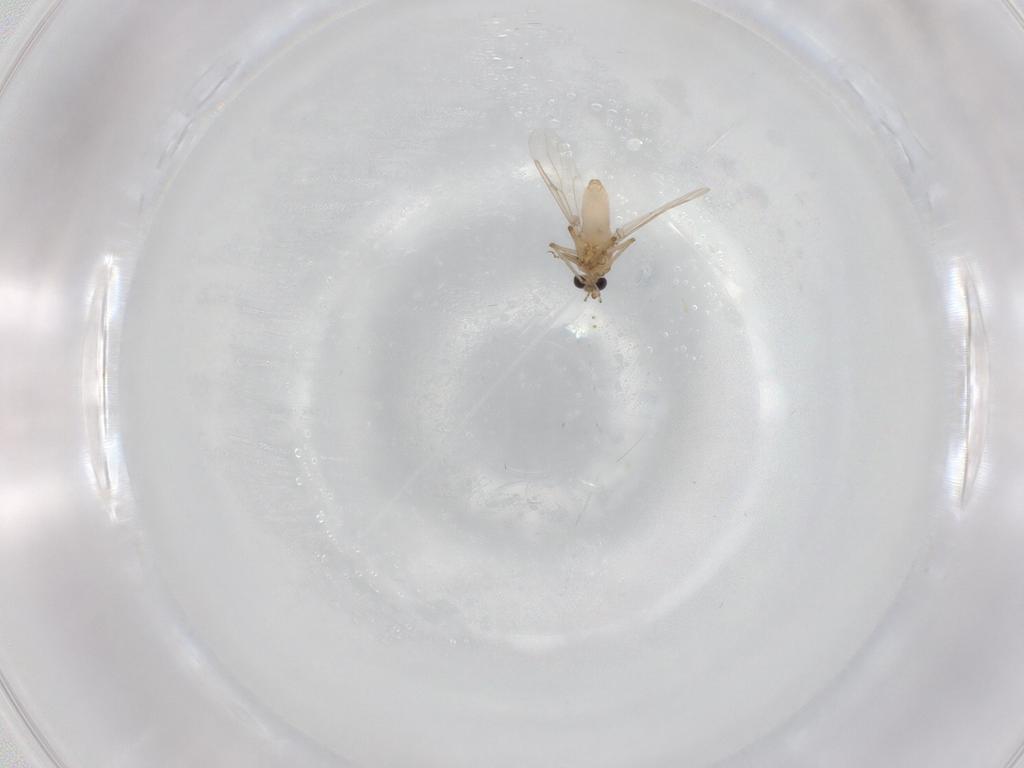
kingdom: Animalia
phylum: Arthropoda
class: Insecta
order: Diptera
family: Ceratopogonidae
